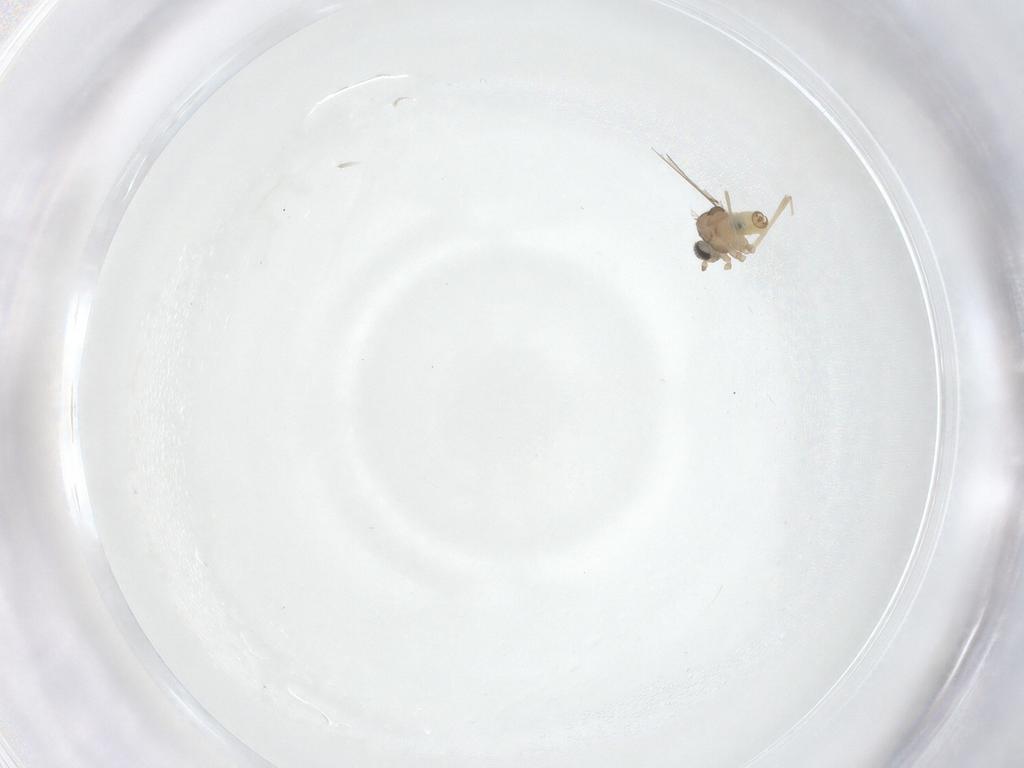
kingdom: Animalia
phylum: Arthropoda
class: Insecta
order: Diptera
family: Cecidomyiidae
